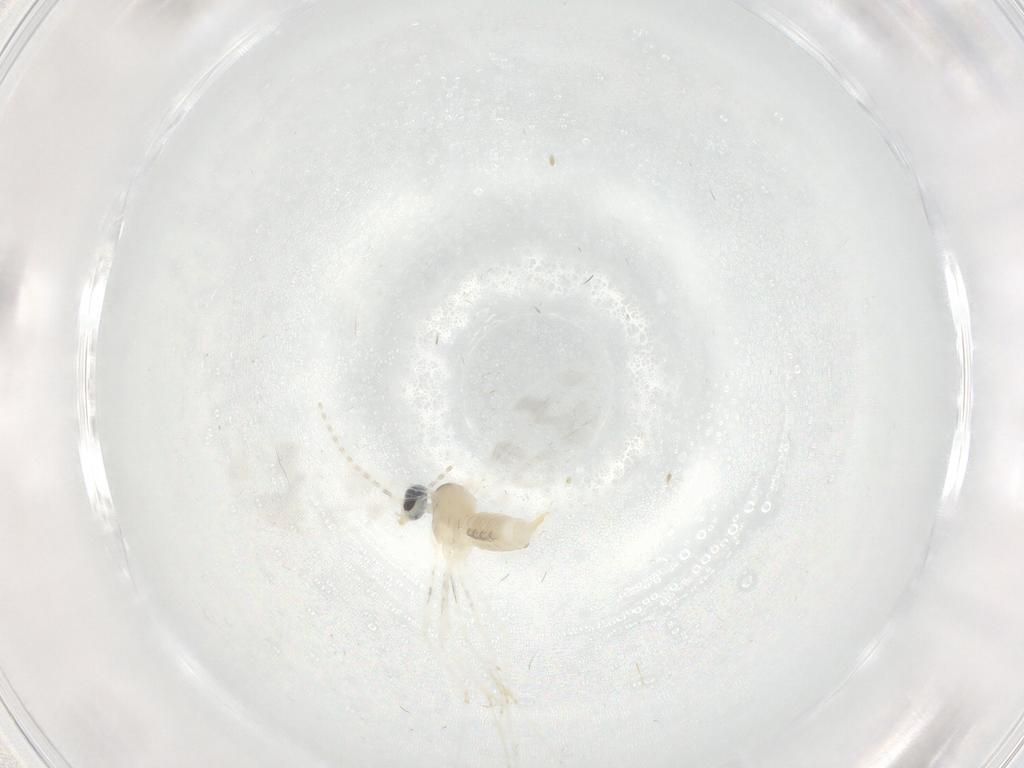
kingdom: Animalia
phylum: Arthropoda
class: Insecta
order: Diptera
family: Cecidomyiidae
